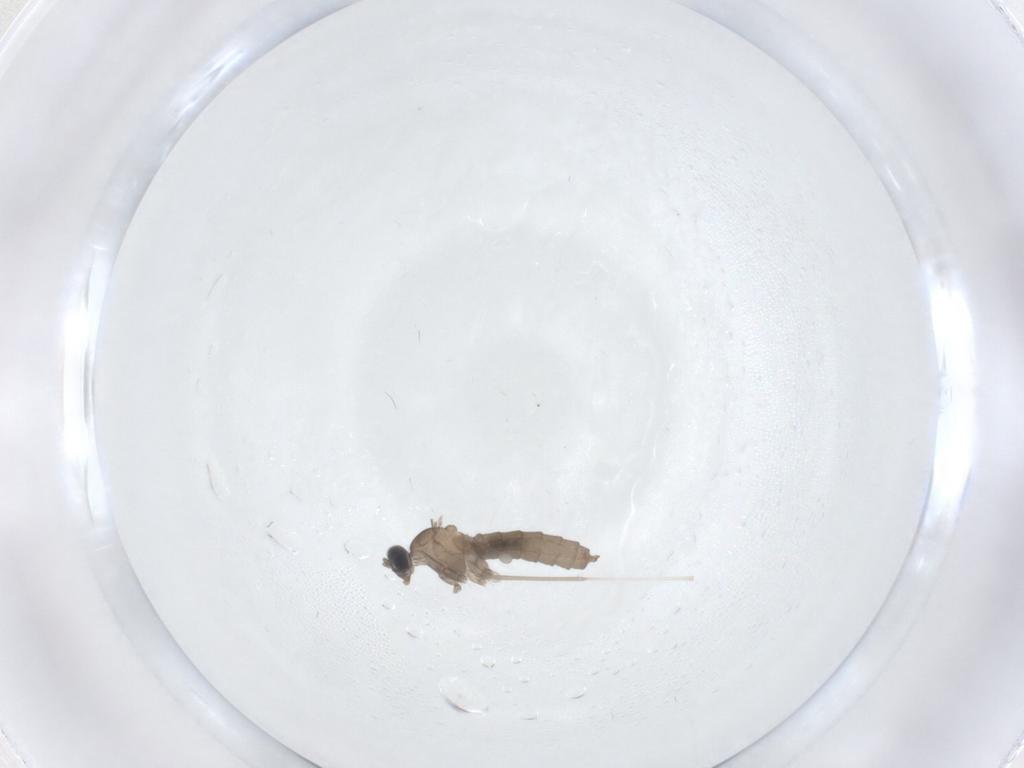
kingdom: Animalia
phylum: Arthropoda
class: Insecta
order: Diptera
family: Cecidomyiidae
